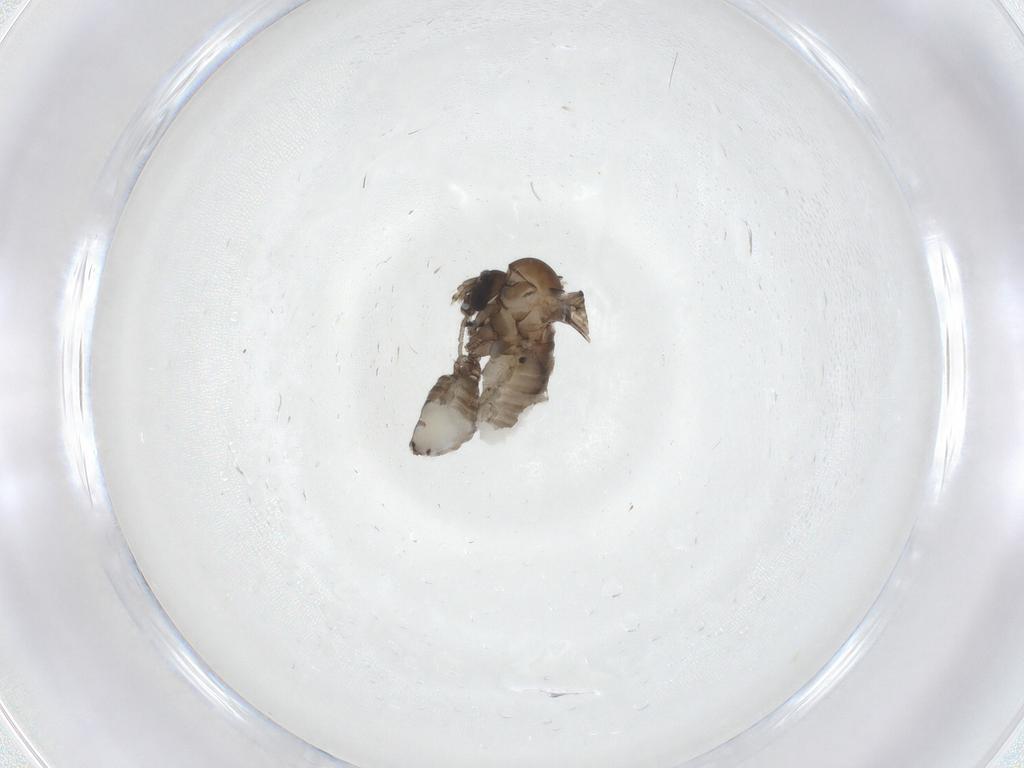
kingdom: Animalia
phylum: Arthropoda
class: Insecta
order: Diptera
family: Psychodidae
